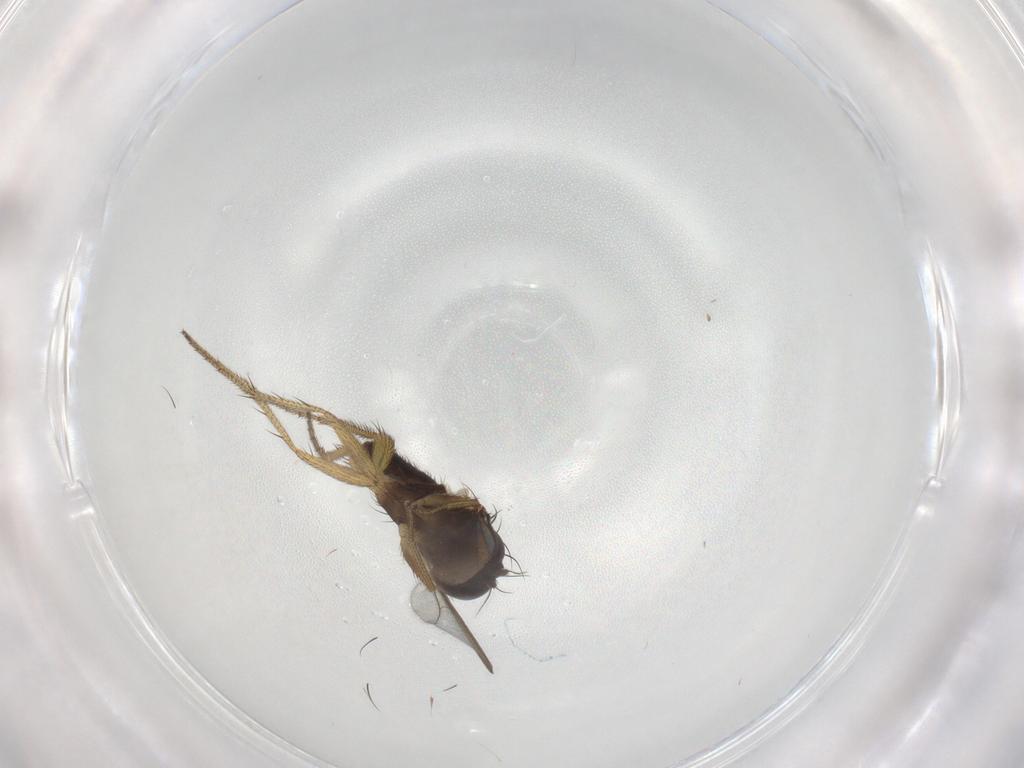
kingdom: Animalia
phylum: Arthropoda
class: Insecta
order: Diptera
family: Dolichopodidae
